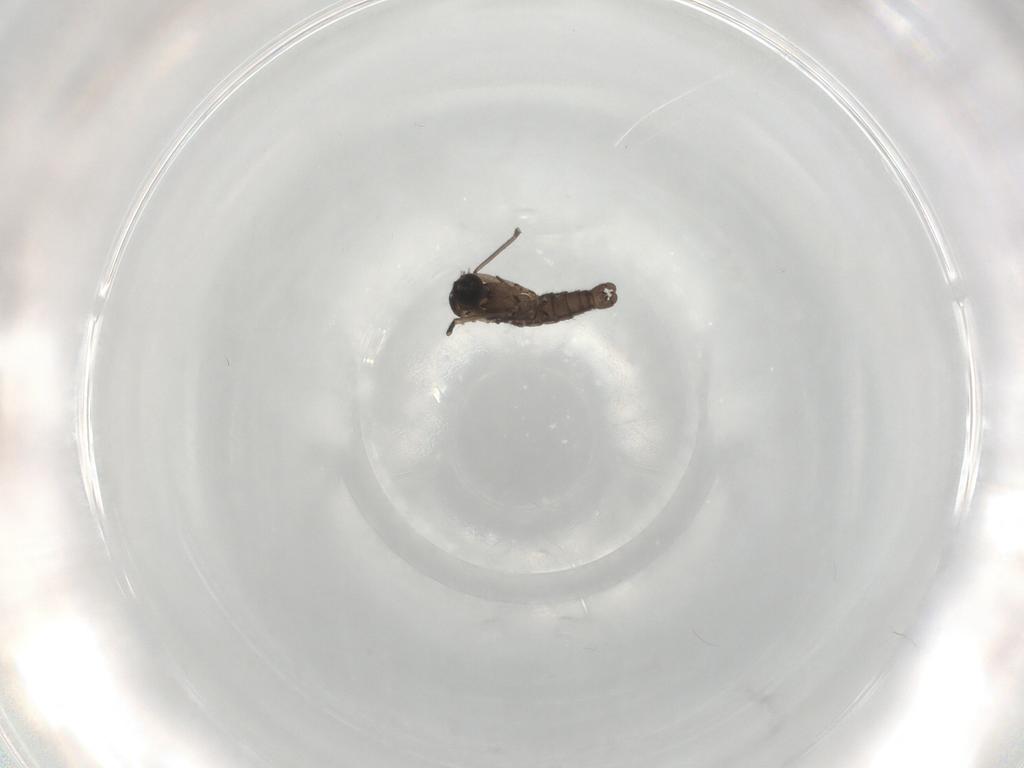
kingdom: Animalia
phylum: Arthropoda
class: Insecta
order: Diptera
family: Sciaridae
